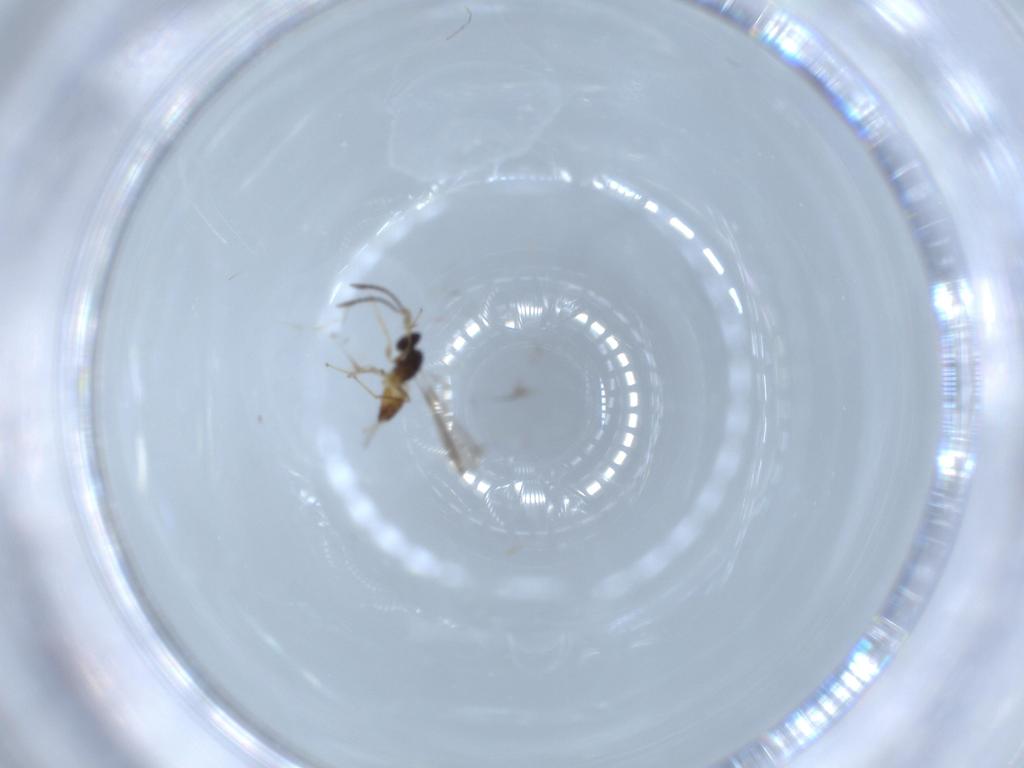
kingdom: Animalia
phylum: Arthropoda
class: Insecta
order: Hymenoptera
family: Mymaridae
